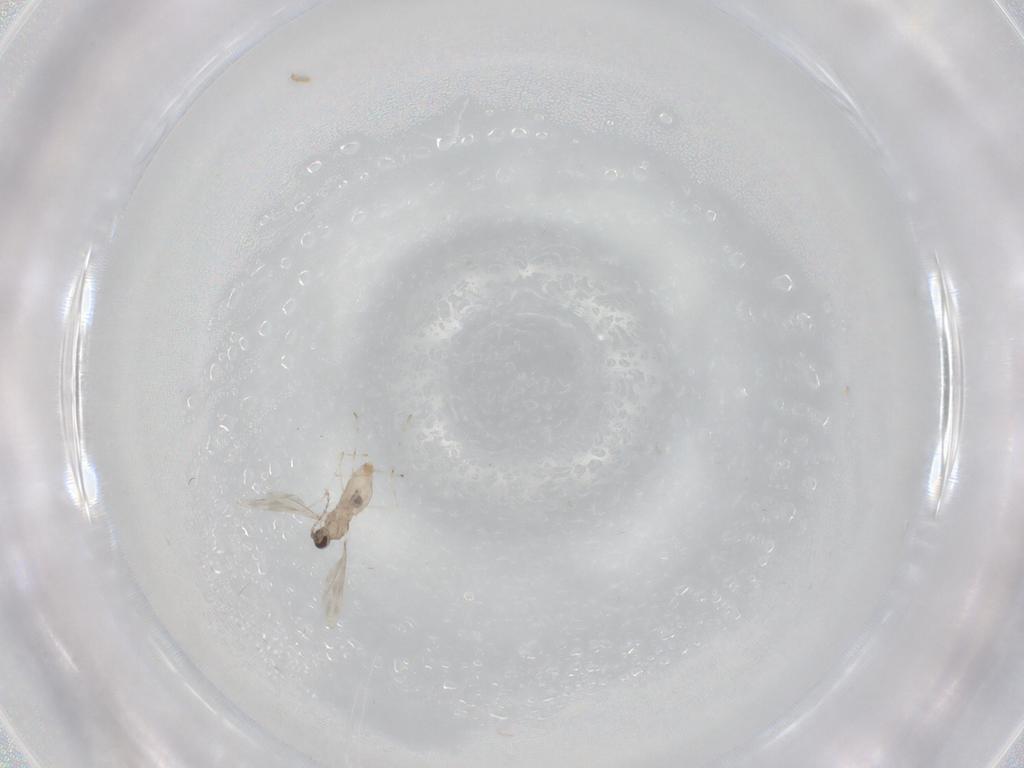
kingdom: Animalia
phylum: Arthropoda
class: Insecta
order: Diptera
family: Cecidomyiidae
